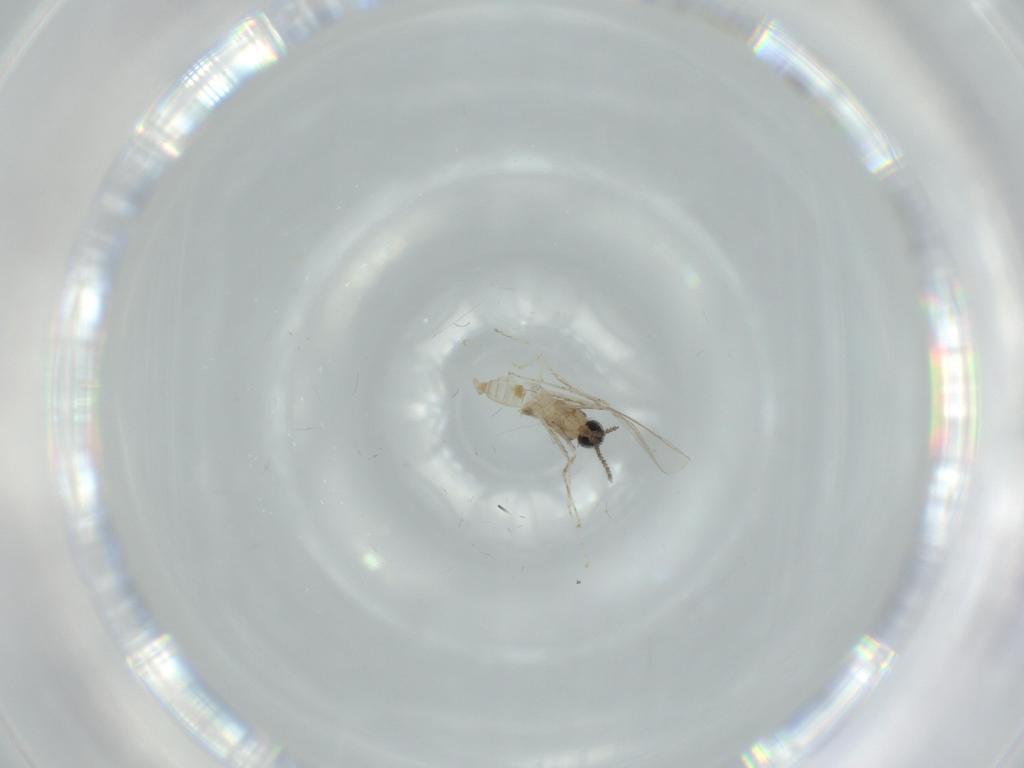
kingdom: Animalia
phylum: Arthropoda
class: Insecta
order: Diptera
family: Cecidomyiidae
